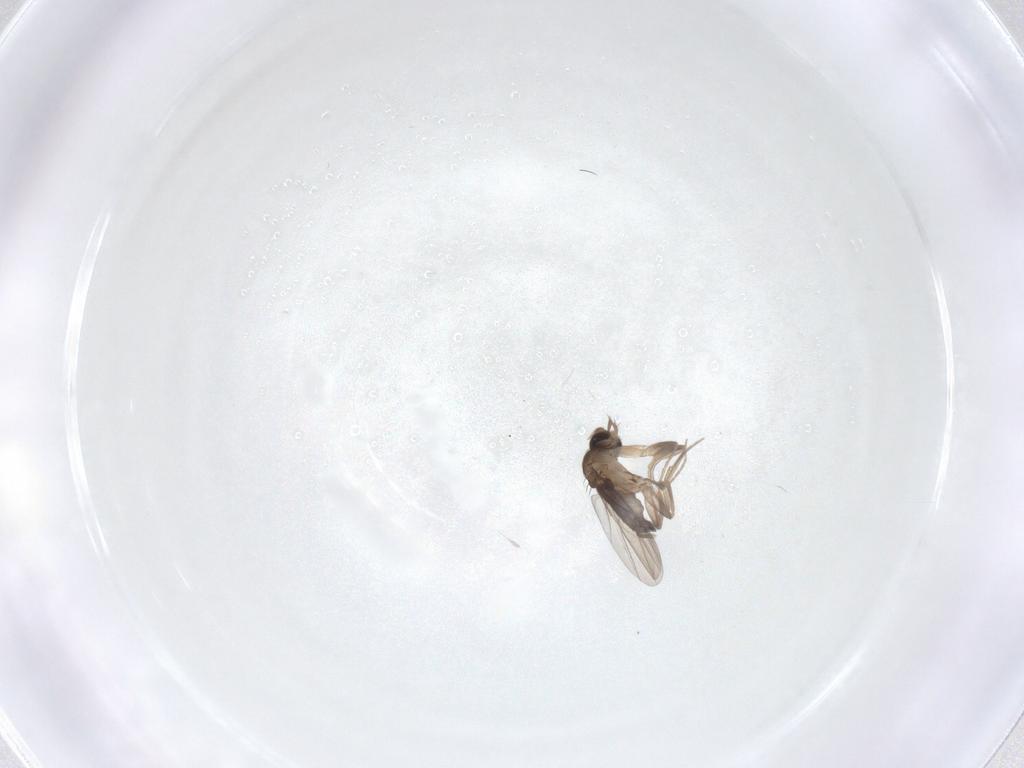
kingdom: Animalia
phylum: Arthropoda
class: Insecta
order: Diptera
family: Phoridae
